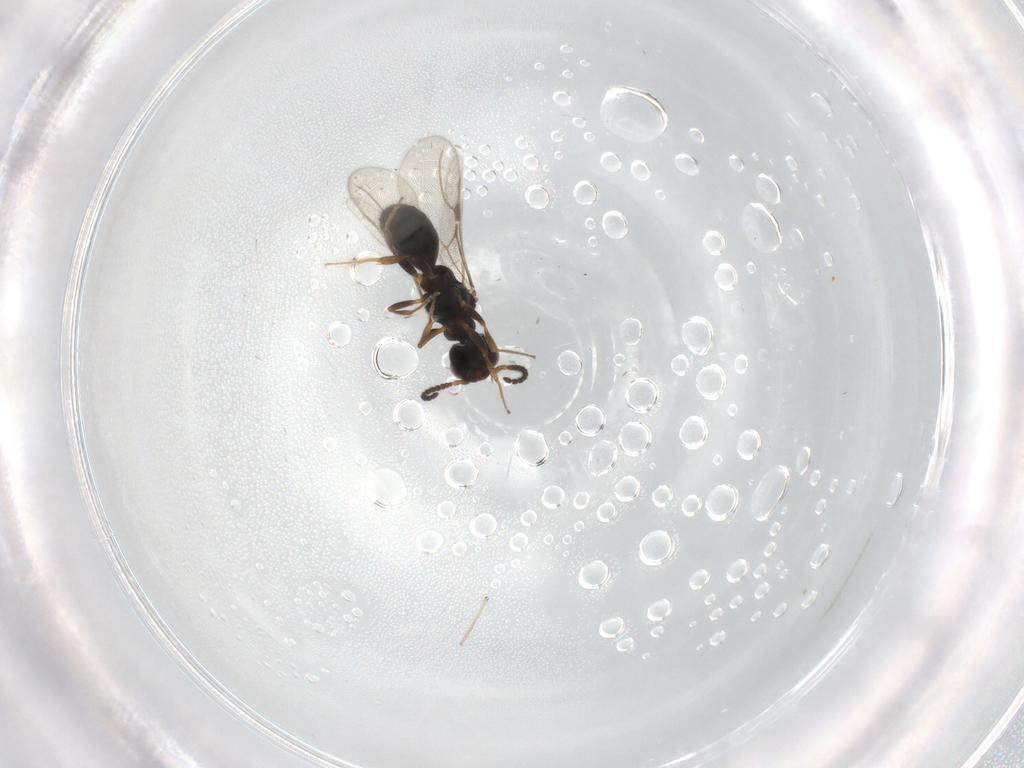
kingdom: Animalia
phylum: Arthropoda
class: Insecta
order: Hymenoptera
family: Bethylidae
